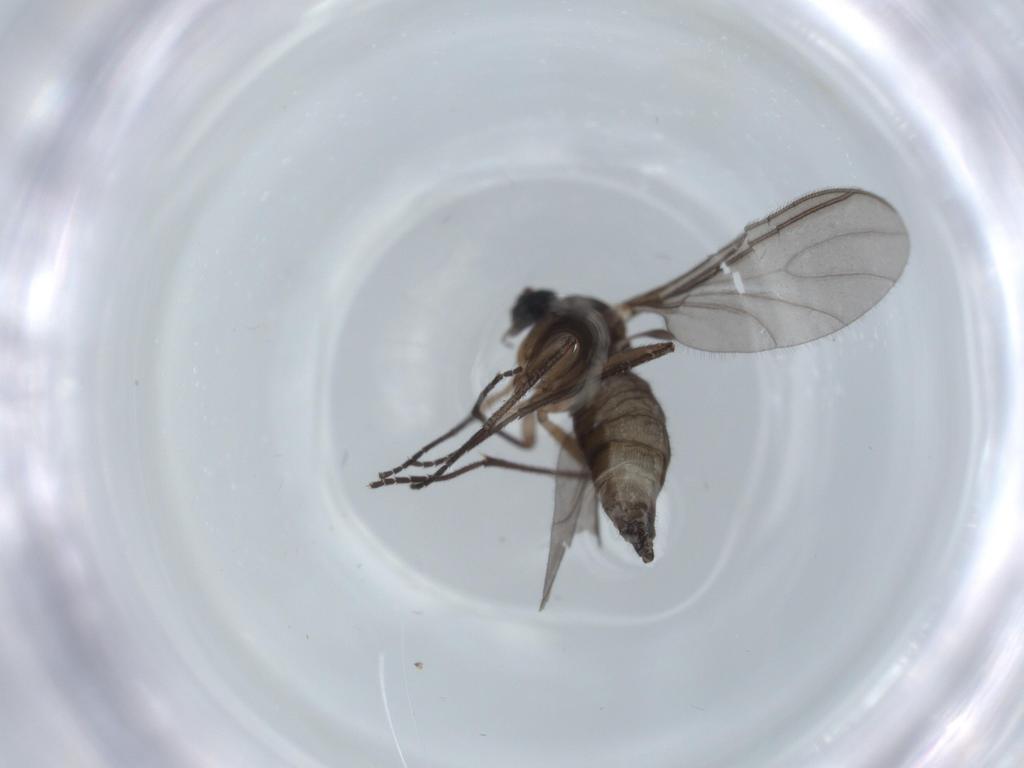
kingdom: Animalia
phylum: Arthropoda
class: Insecta
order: Diptera
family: Sciaridae
